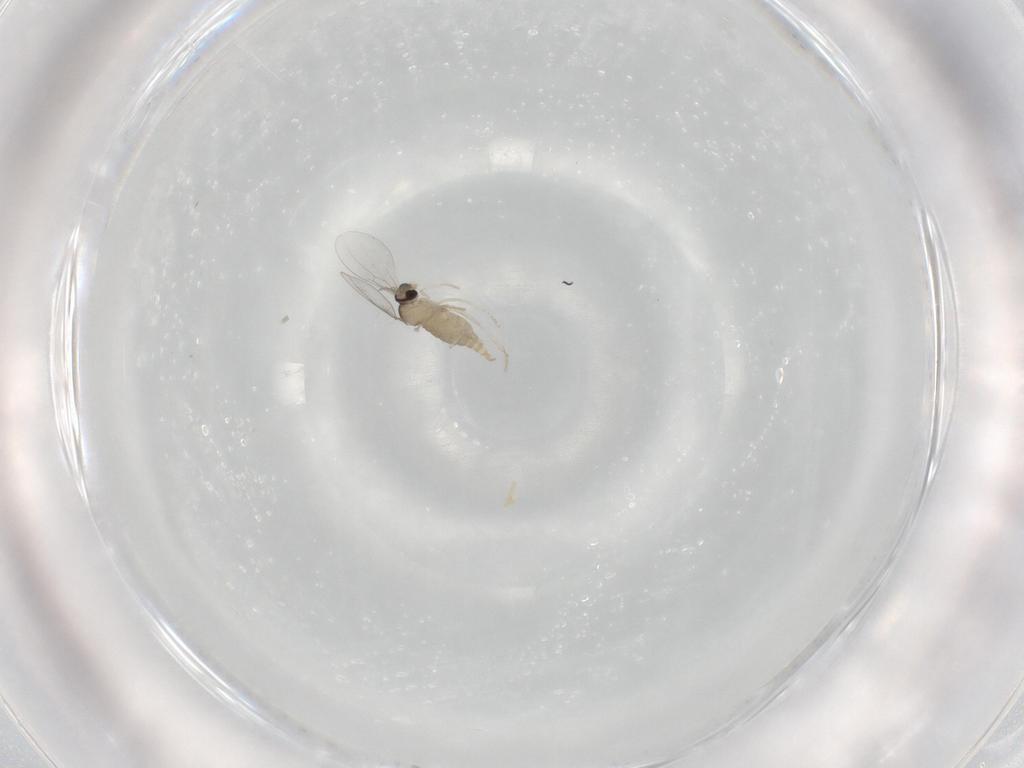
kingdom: Animalia
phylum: Arthropoda
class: Insecta
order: Diptera
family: Cecidomyiidae
